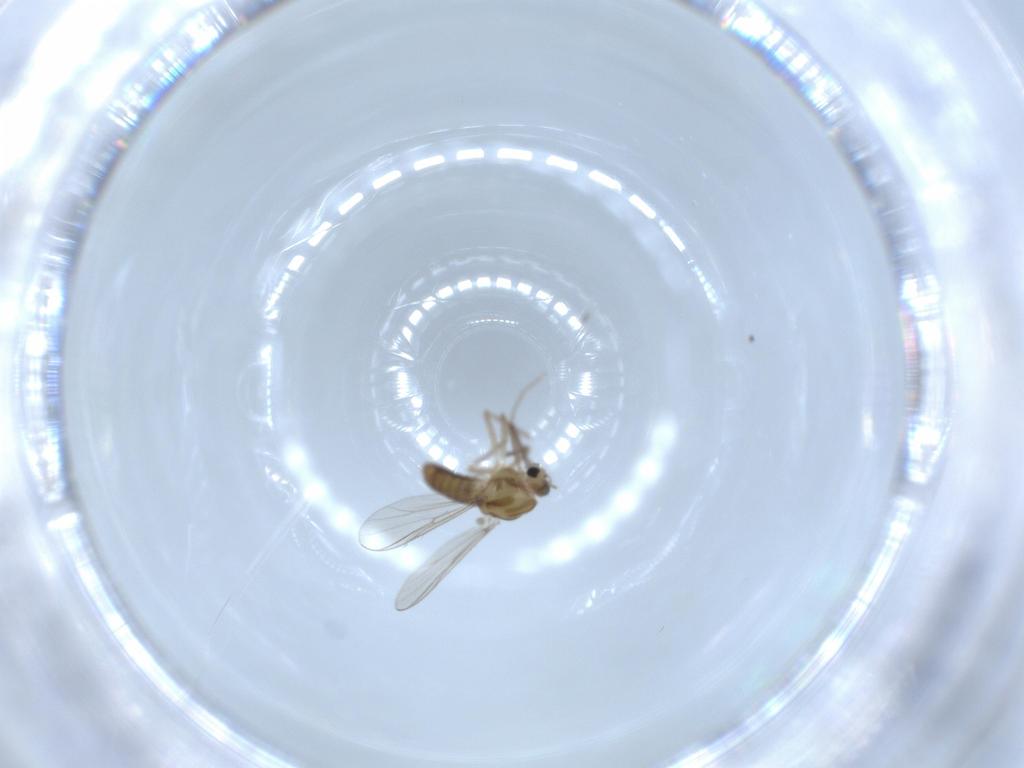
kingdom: Animalia
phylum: Arthropoda
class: Insecta
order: Diptera
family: Chironomidae
